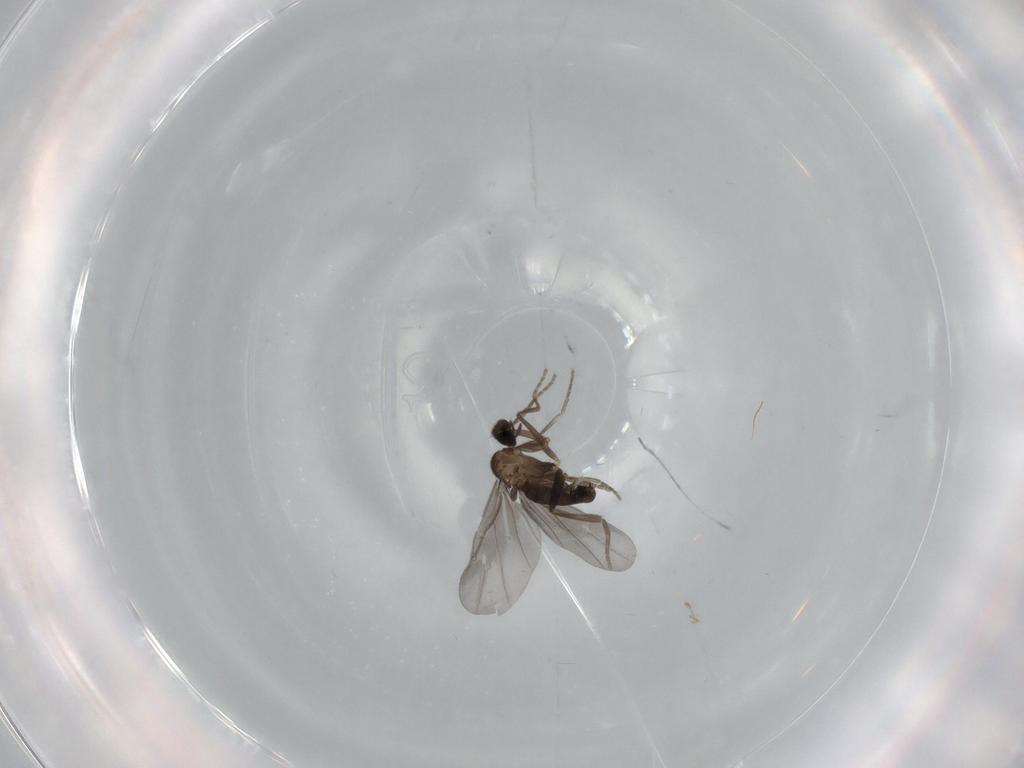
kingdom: Animalia
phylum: Arthropoda
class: Insecta
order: Diptera
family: Phoridae
